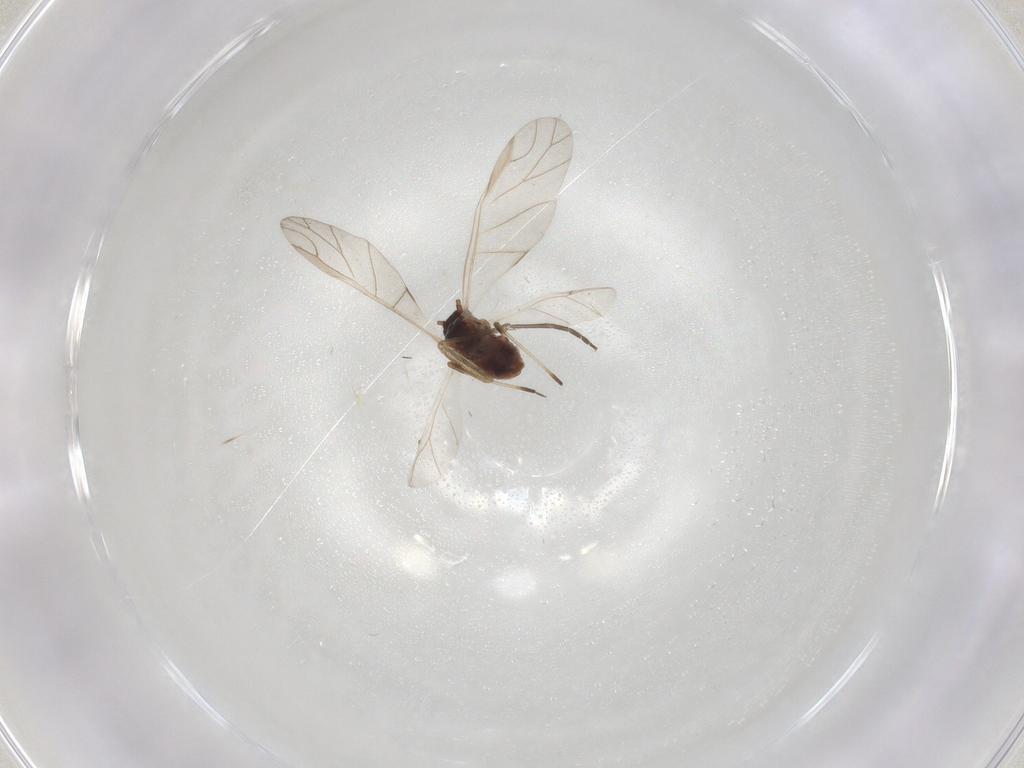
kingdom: Animalia
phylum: Arthropoda
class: Insecta
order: Hemiptera
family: Aphididae
